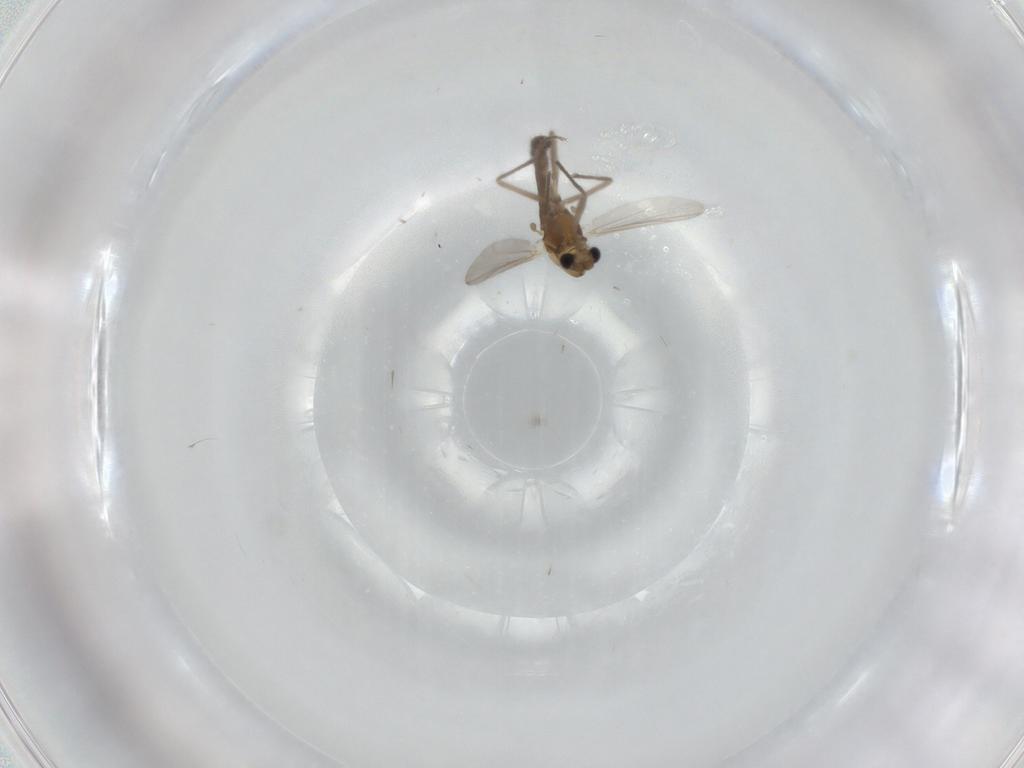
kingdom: Animalia
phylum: Arthropoda
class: Insecta
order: Diptera
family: Chironomidae
